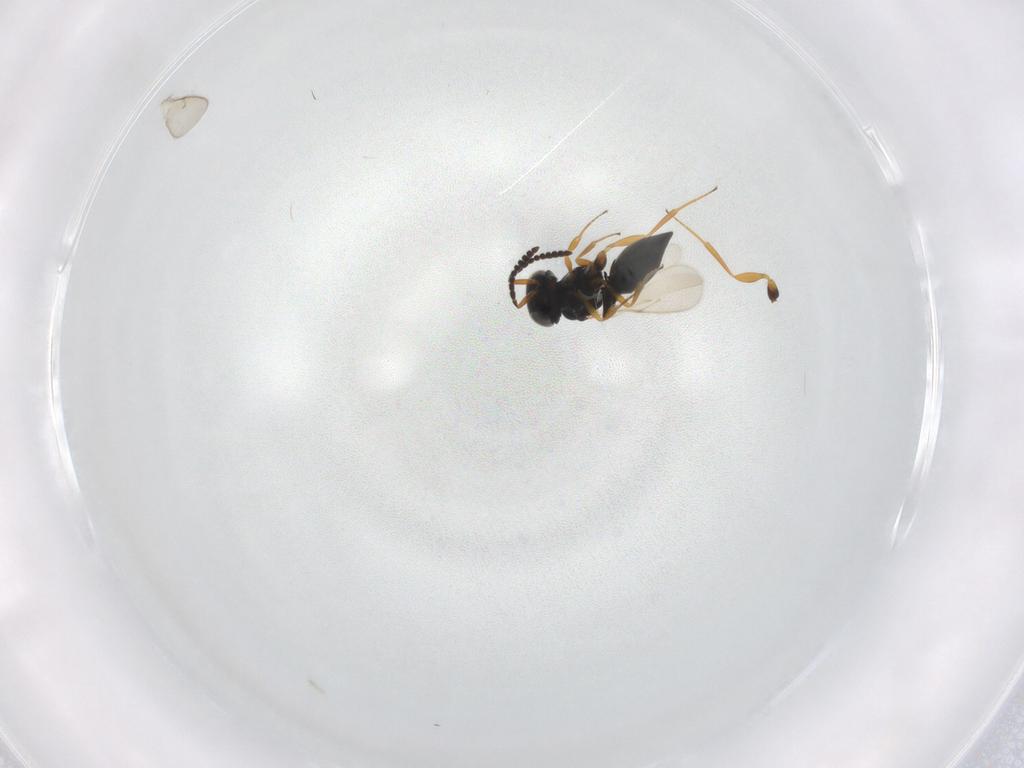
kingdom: Animalia
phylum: Arthropoda
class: Insecta
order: Hymenoptera
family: Scelionidae
